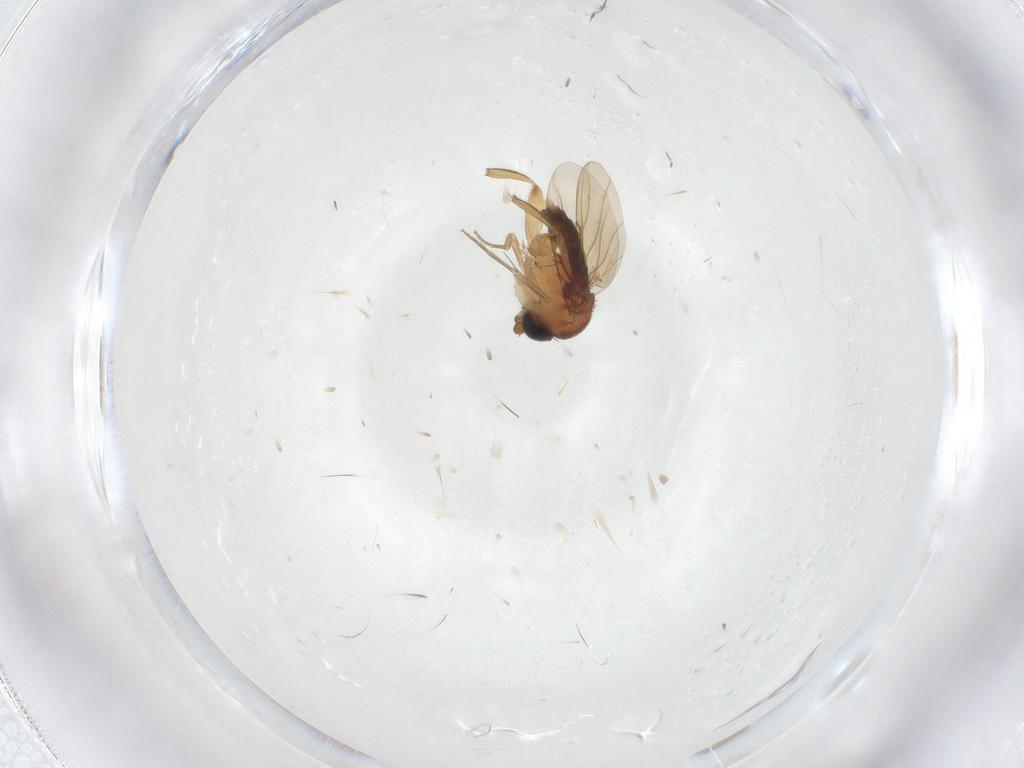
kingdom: Animalia
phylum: Arthropoda
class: Insecta
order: Diptera
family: Phoridae
